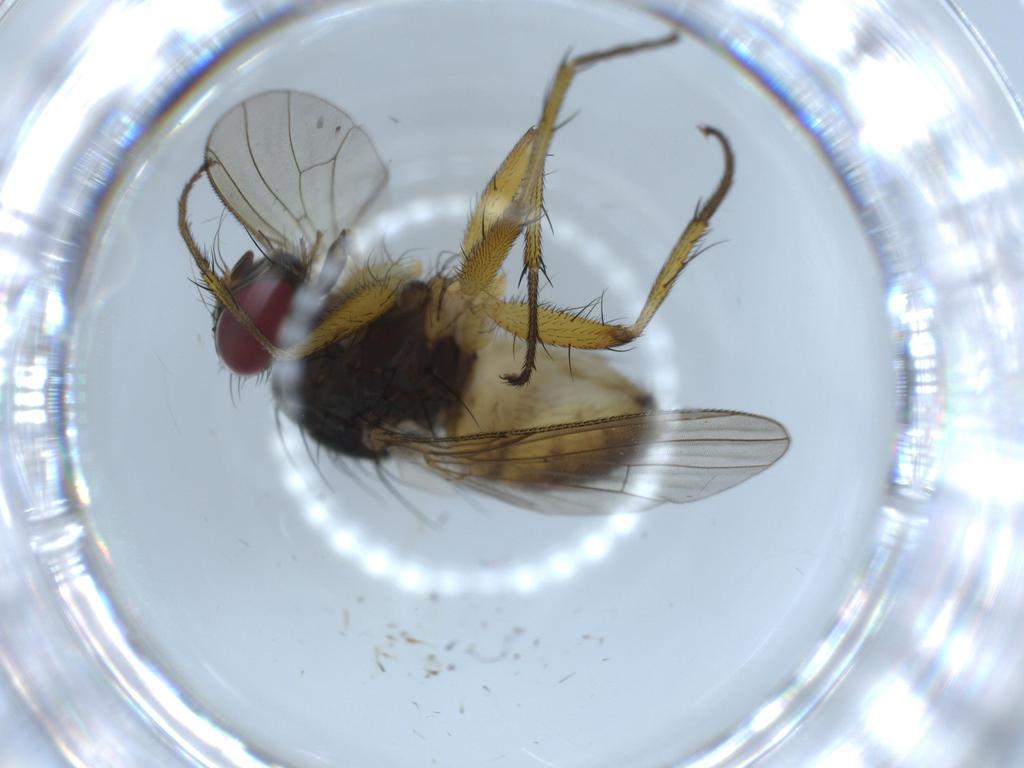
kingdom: Animalia
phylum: Arthropoda
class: Insecta
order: Diptera
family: Muscidae
